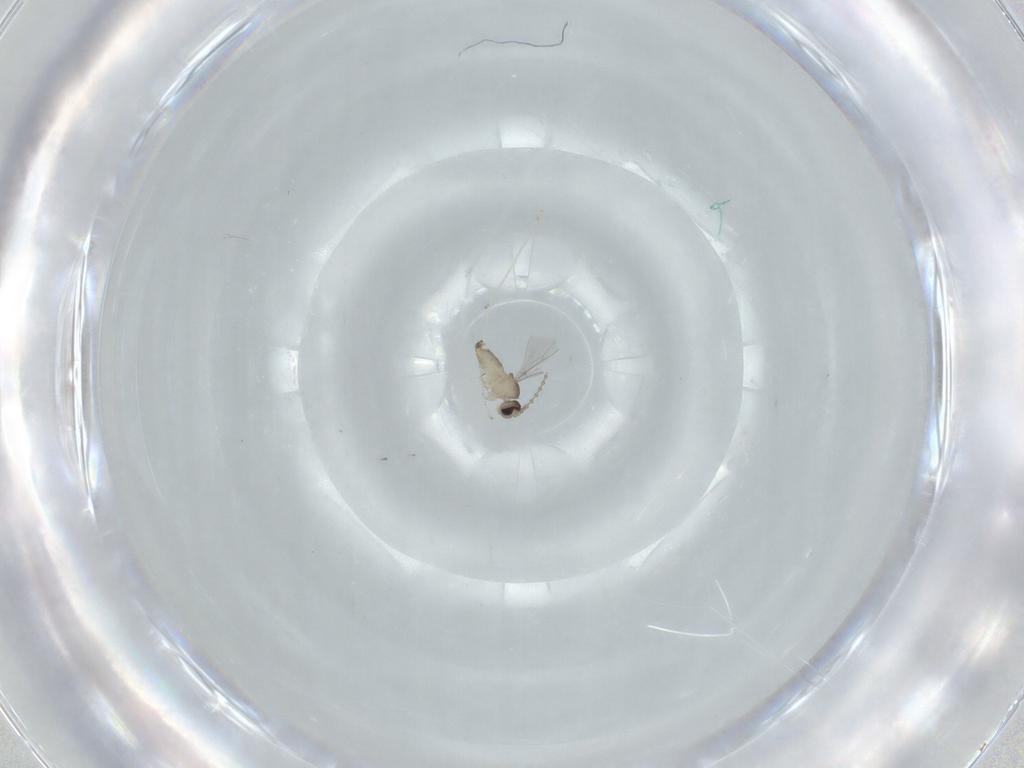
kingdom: Animalia
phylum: Arthropoda
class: Insecta
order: Diptera
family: Cecidomyiidae
